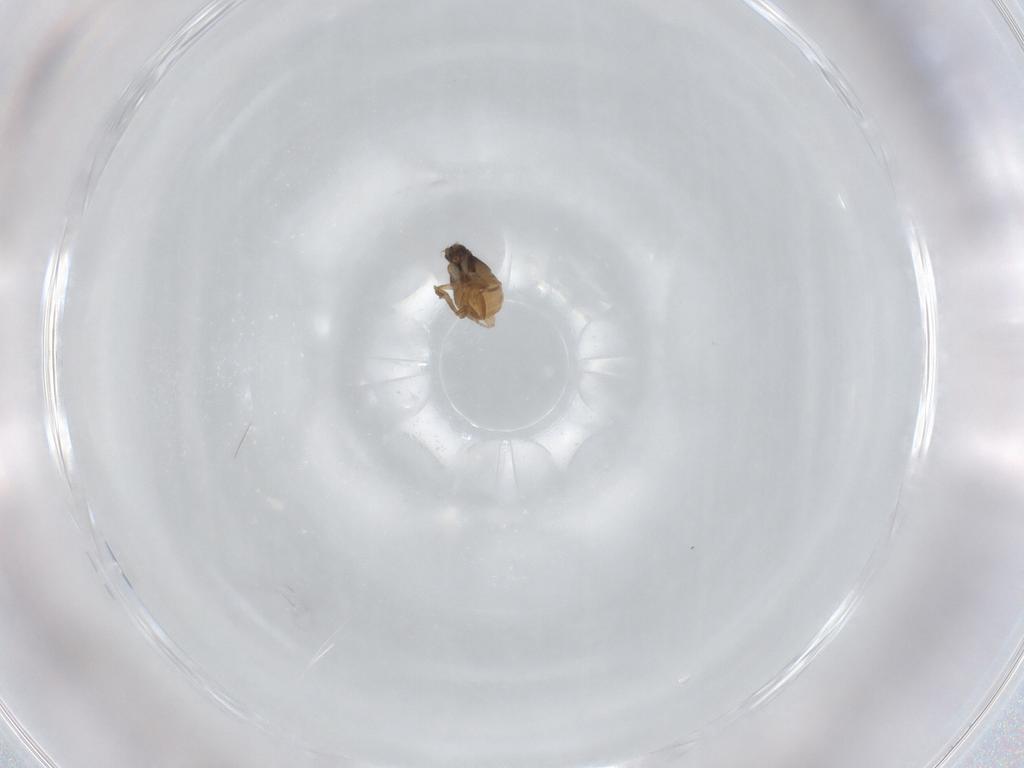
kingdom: Animalia
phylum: Arthropoda
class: Insecta
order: Diptera
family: Phoridae
